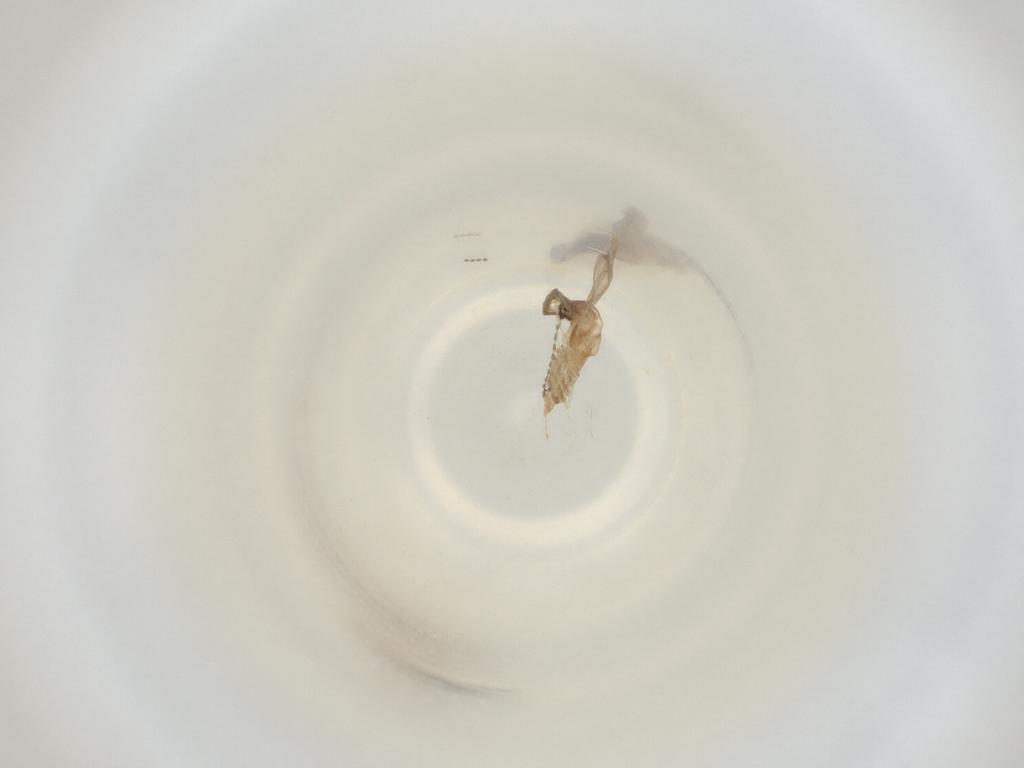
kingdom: Animalia
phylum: Arthropoda
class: Insecta
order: Diptera
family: Cecidomyiidae
